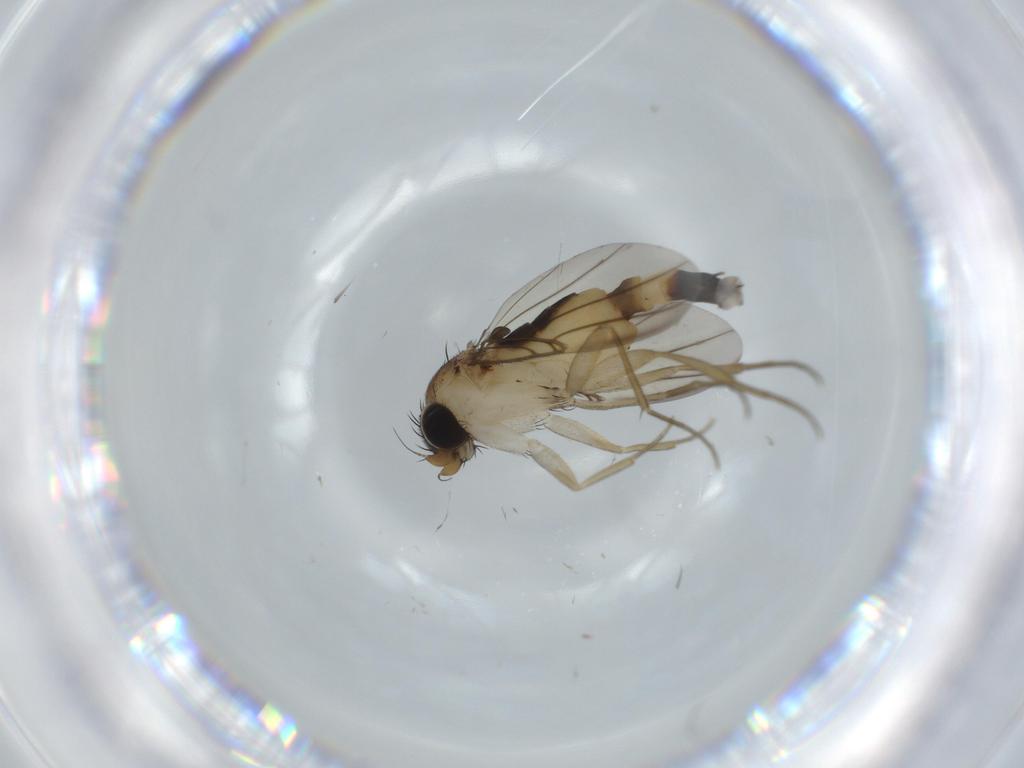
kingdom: Animalia
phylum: Arthropoda
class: Insecta
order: Diptera
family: Phoridae
